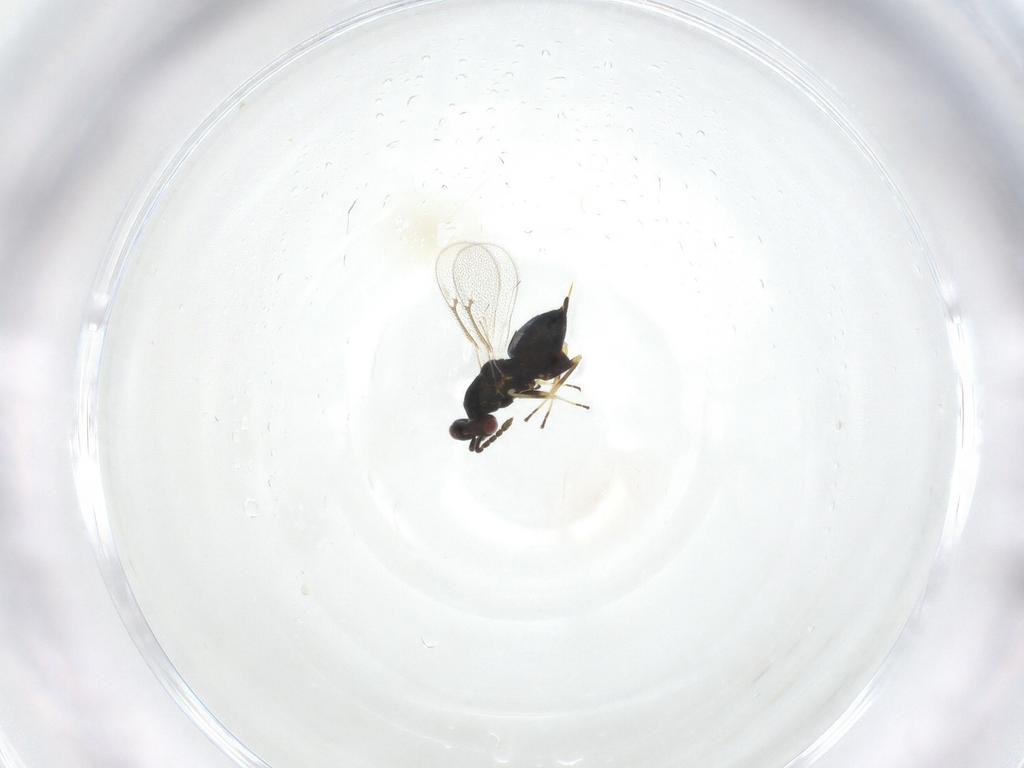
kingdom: Animalia
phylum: Arthropoda
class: Insecta
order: Hymenoptera
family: Eulophidae
